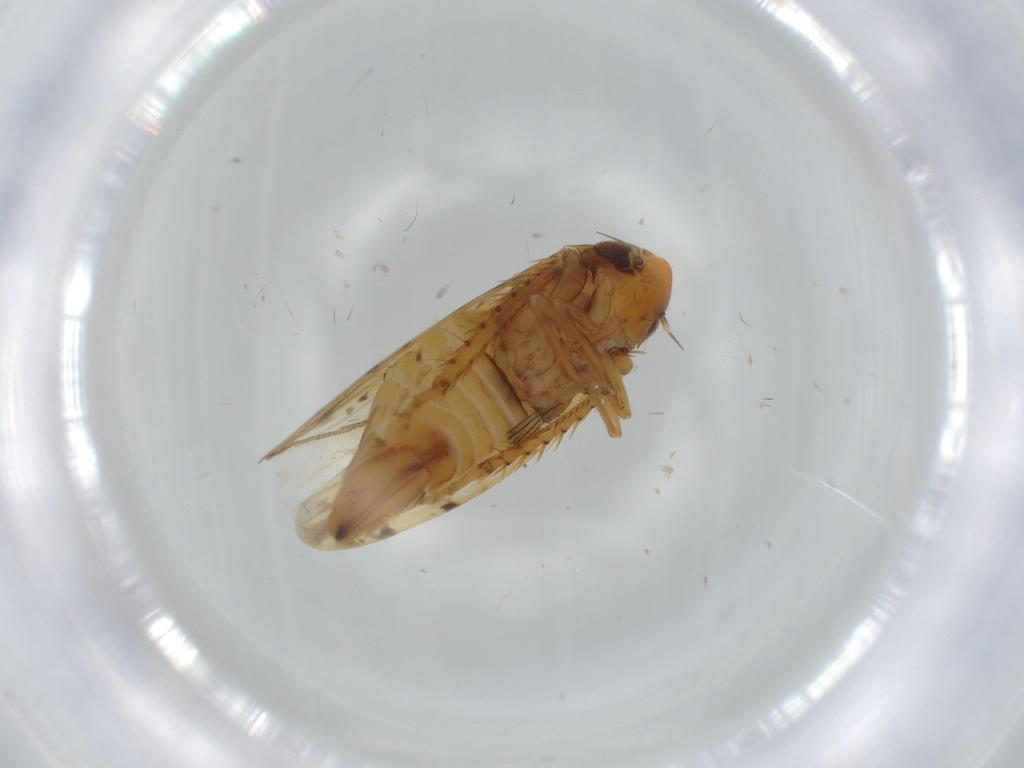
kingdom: Animalia
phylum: Arthropoda
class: Insecta
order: Hemiptera
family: Cicadellidae
